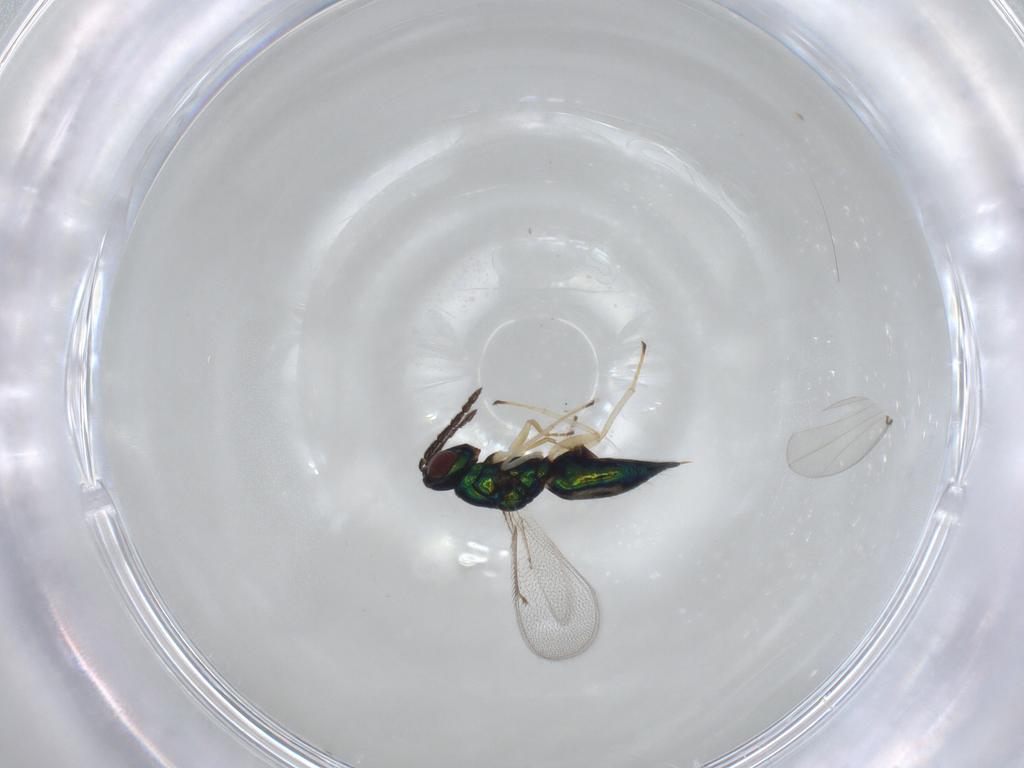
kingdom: Animalia
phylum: Arthropoda
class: Insecta
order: Hymenoptera
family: Eulophidae
